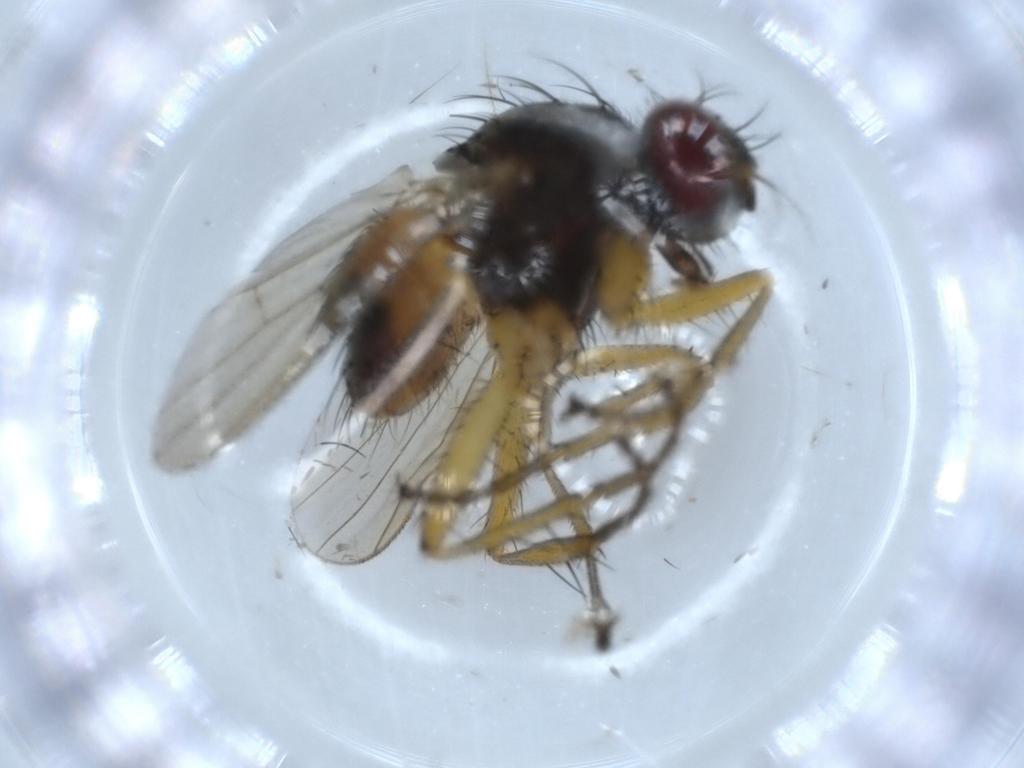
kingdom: Animalia
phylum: Arthropoda
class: Insecta
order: Diptera
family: Muscidae
